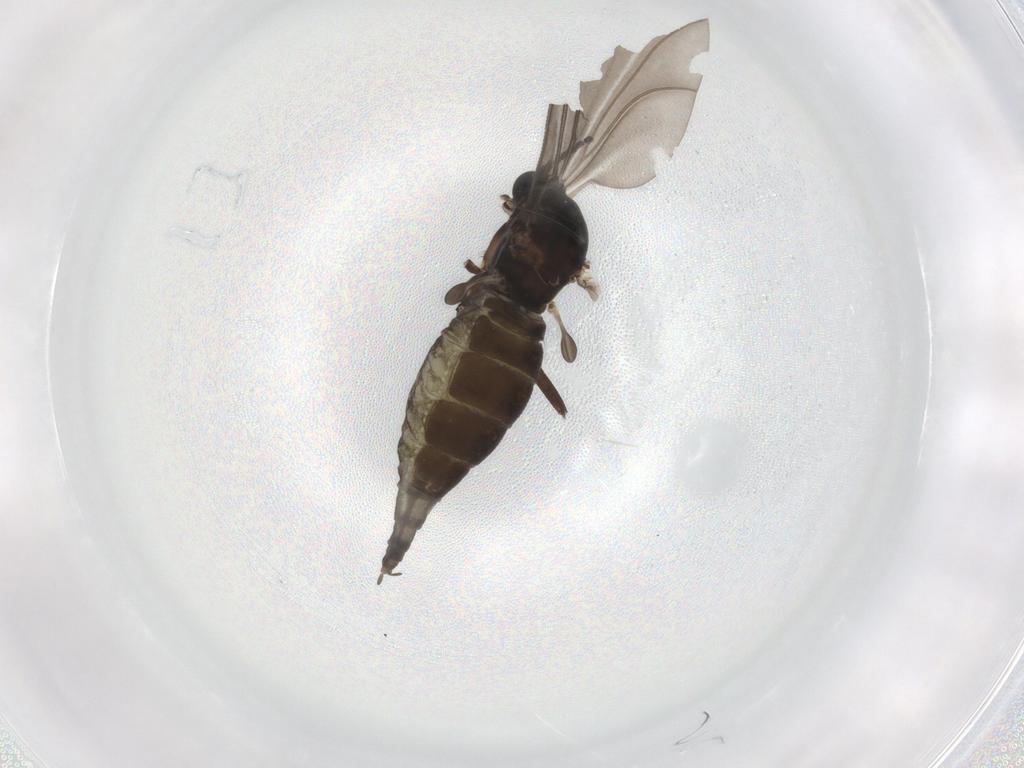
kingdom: Animalia
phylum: Arthropoda
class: Insecta
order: Diptera
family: Sciaridae
